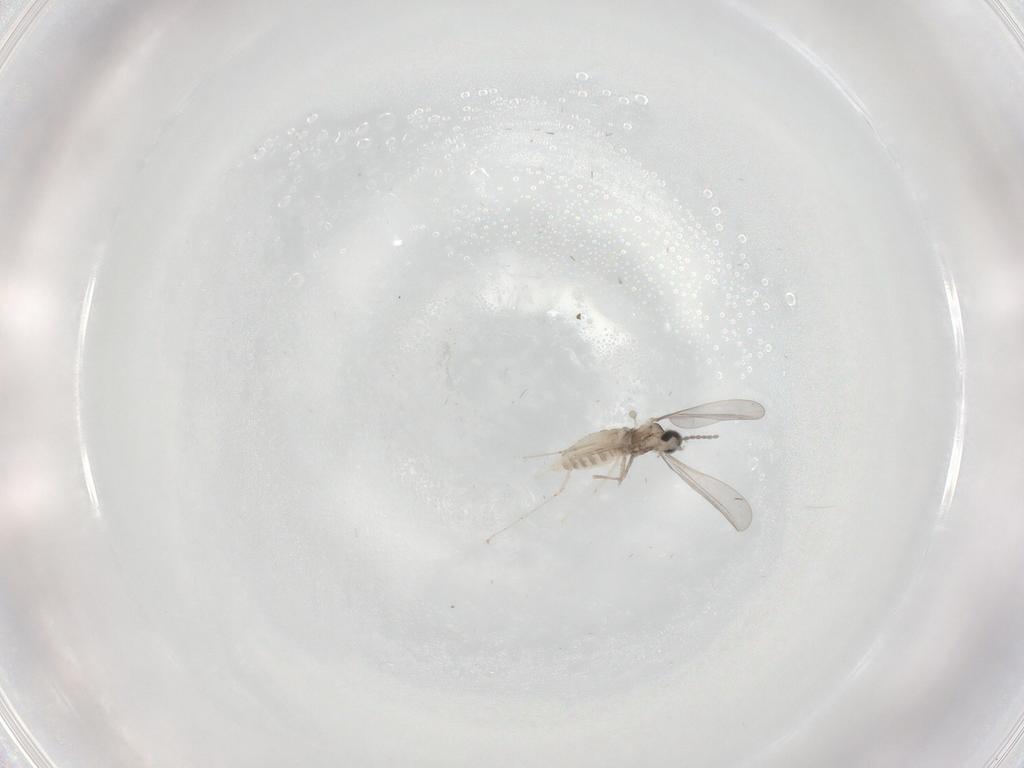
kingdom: Animalia
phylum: Arthropoda
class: Insecta
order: Diptera
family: Cecidomyiidae
